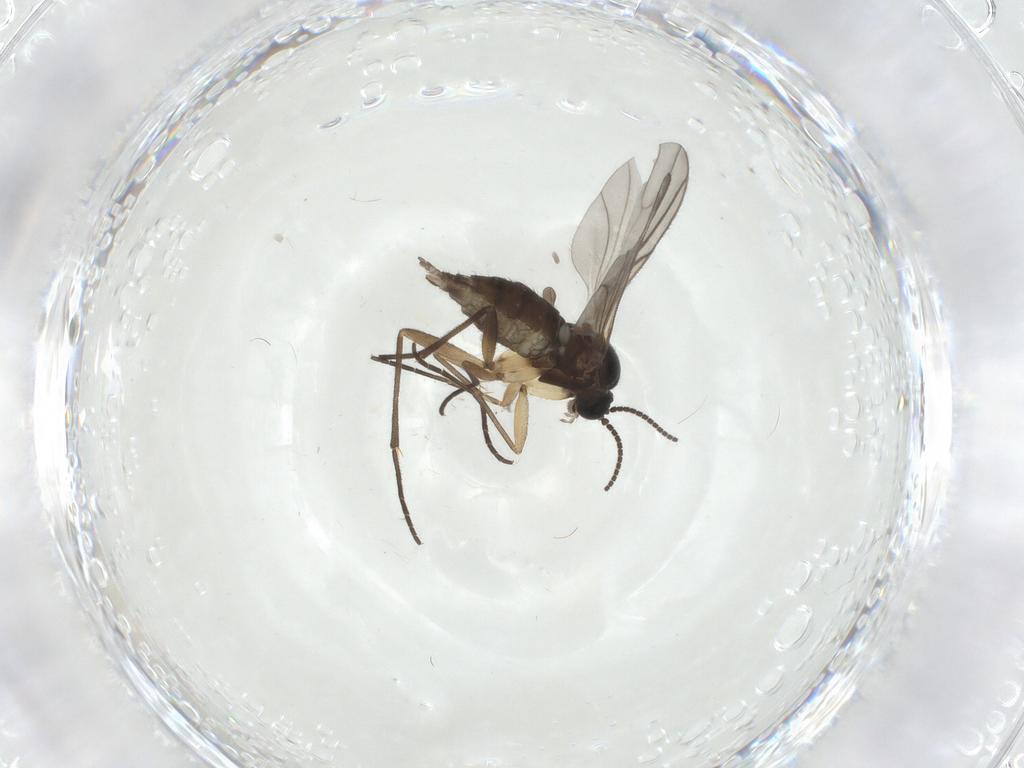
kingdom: Animalia
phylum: Arthropoda
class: Insecta
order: Diptera
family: Sciaridae
